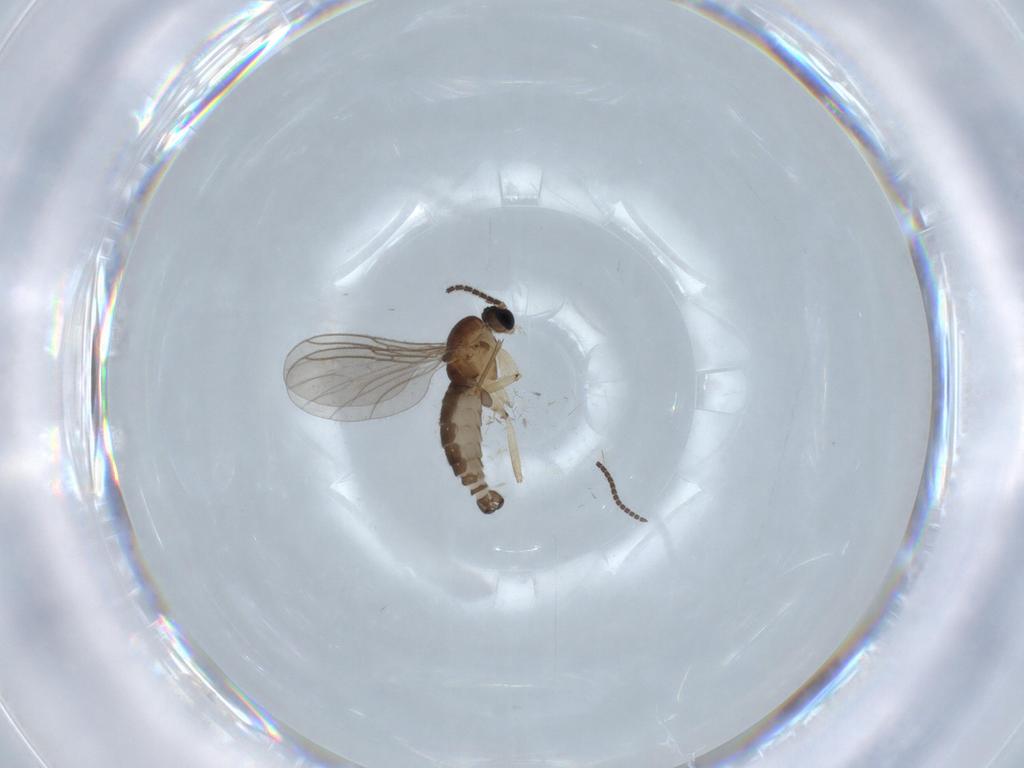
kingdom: Animalia
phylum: Arthropoda
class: Insecta
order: Diptera
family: Sciaridae
